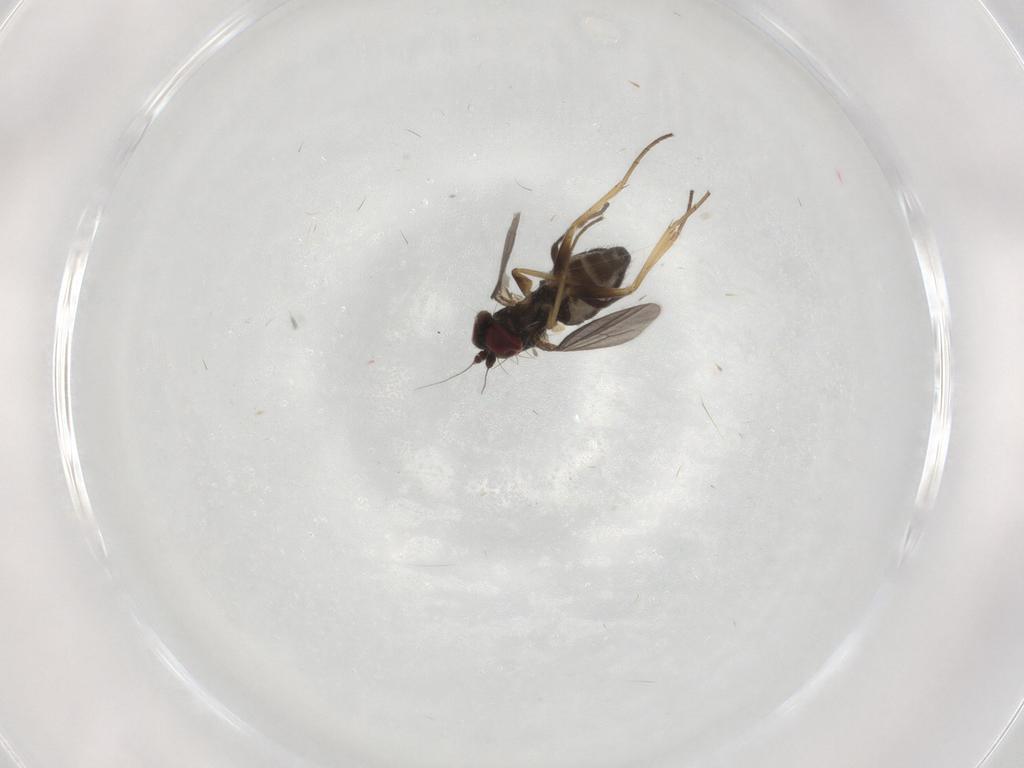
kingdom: Animalia
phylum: Arthropoda
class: Insecta
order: Diptera
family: Dolichopodidae
